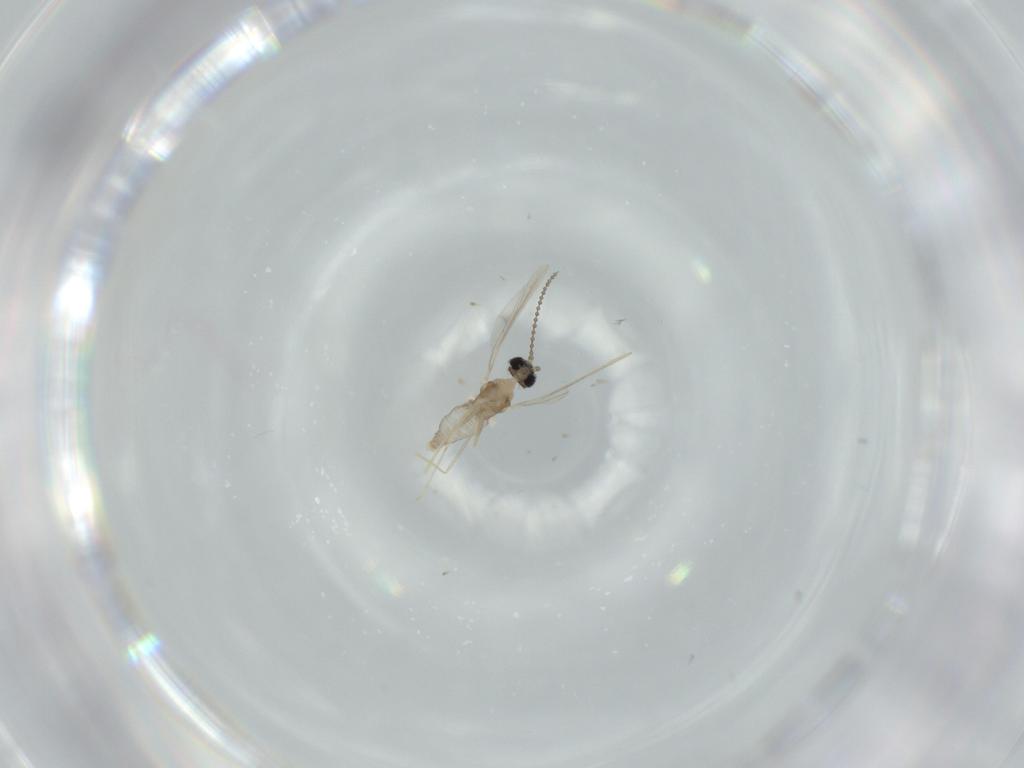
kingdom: Animalia
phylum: Arthropoda
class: Insecta
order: Diptera
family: Cecidomyiidae
